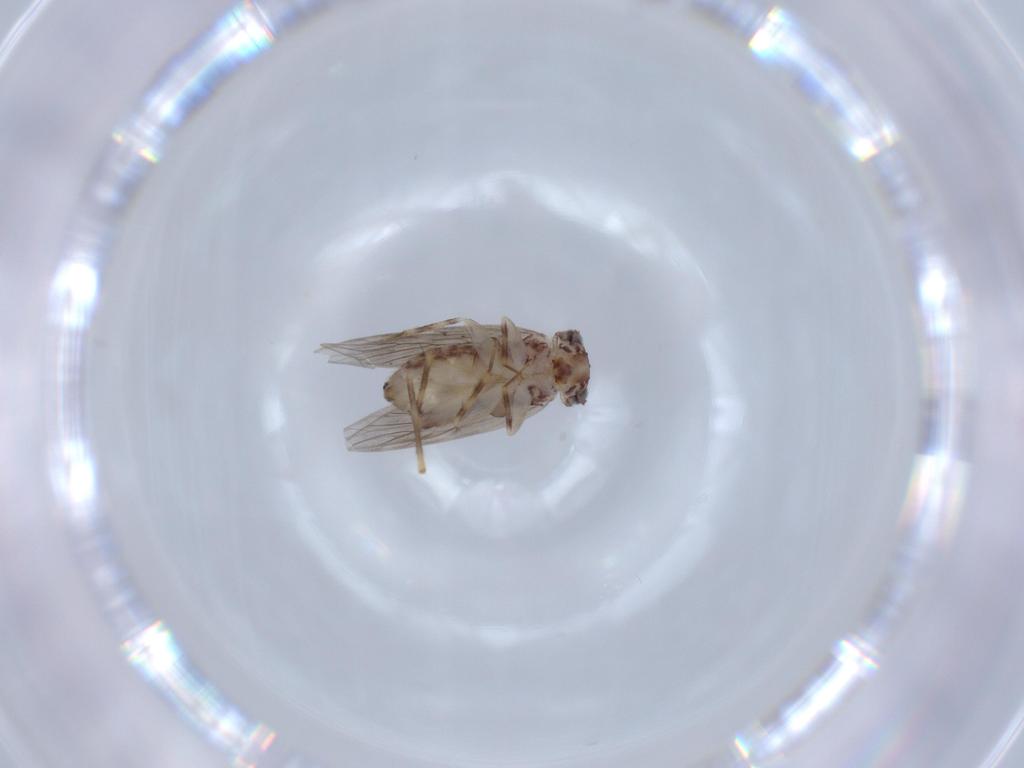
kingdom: Animalia
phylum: Arthropoda
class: Insecta
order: Psocodea
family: Lepidopsocidae
